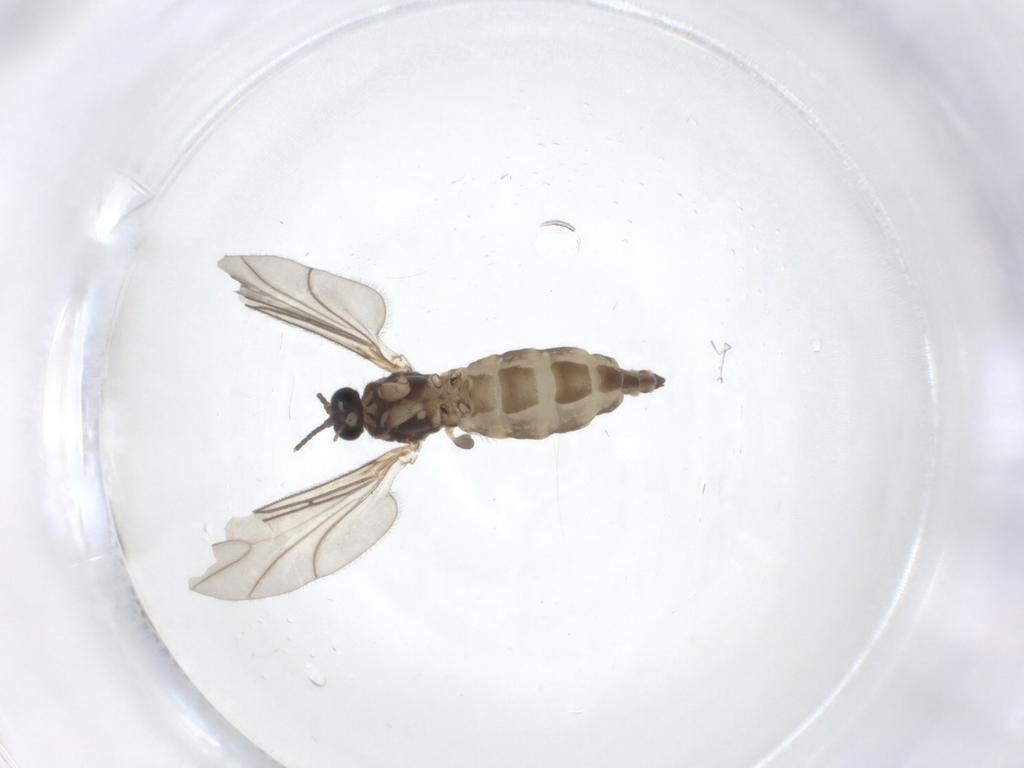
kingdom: Animalia
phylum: Arthropoda
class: Insecta
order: Diptera
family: Sciaridae
